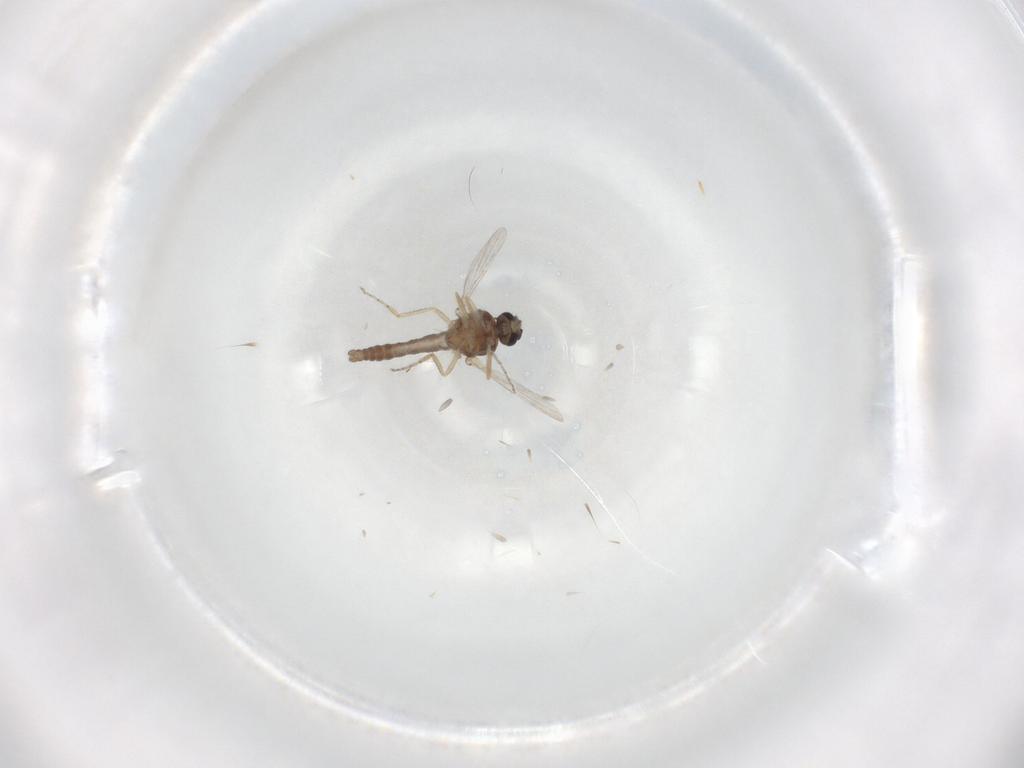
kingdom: Animalia
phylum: Arthropoda
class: Insecta
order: Diptera
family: Ceratopogonidae
